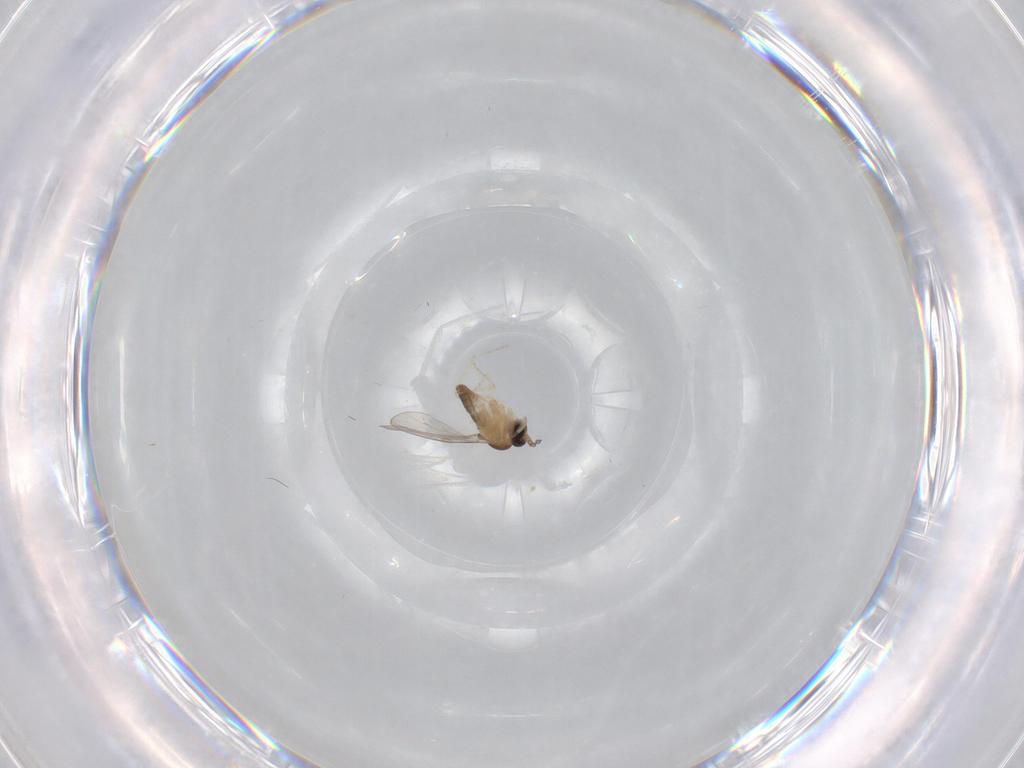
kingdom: Animalia
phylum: Arthropoda
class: Insecta
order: Diptera
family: Cecidomyiidae
